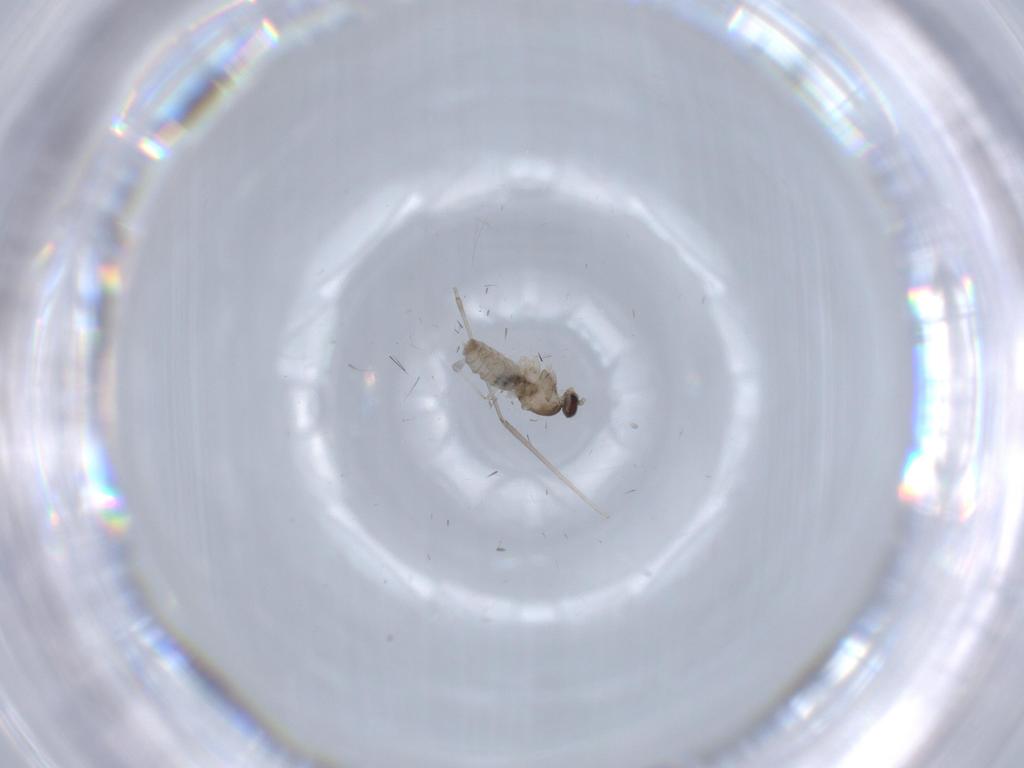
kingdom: Animalia
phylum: Arthropoda
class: Insecta
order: Diptera
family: Cecidomyiidae
